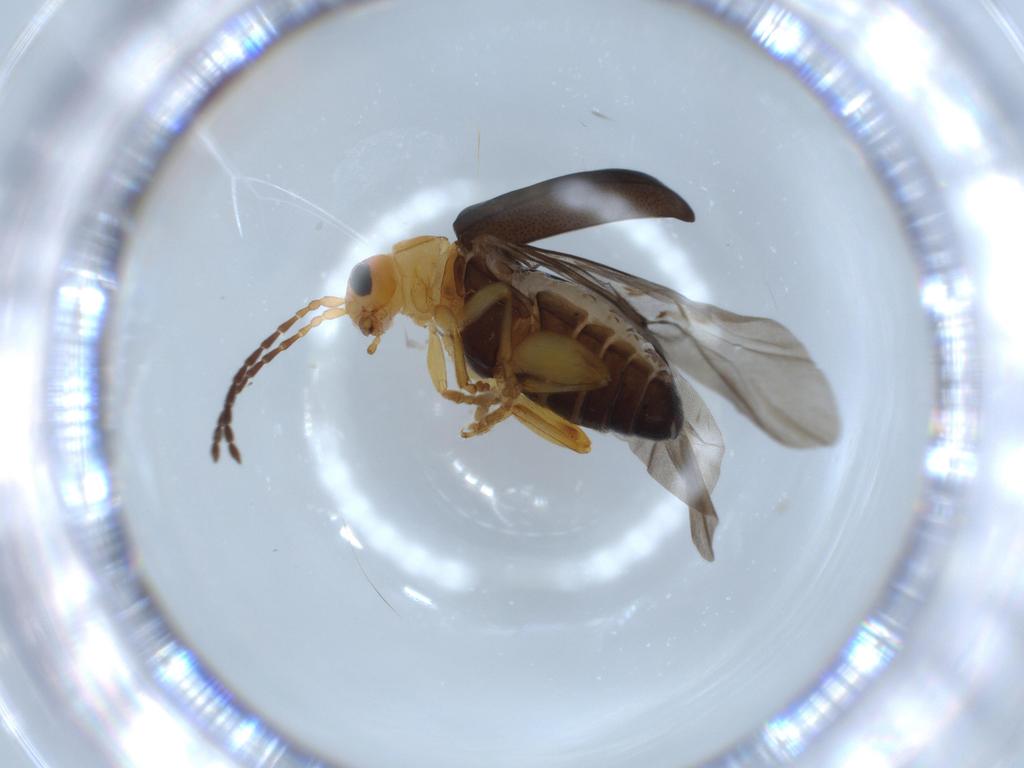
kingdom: Animalia
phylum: Arthropoda
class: Insecta
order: Coleoptera
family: Chrysomelidae
